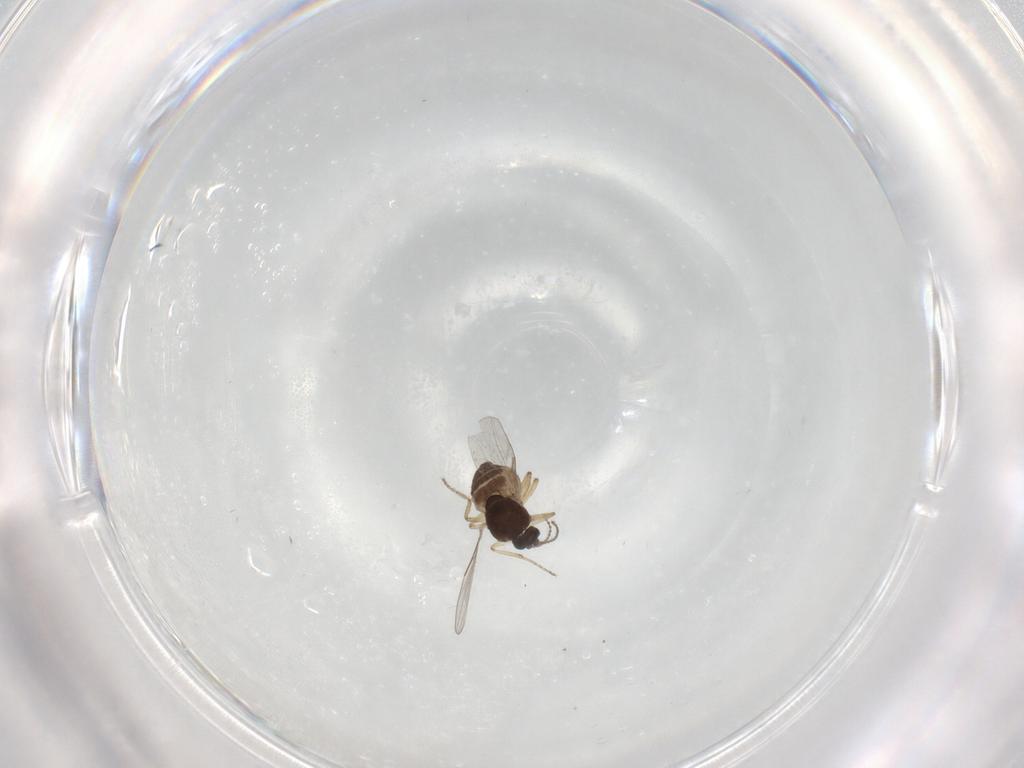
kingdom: Animalia
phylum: Arthropoda
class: Insecta
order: Diptera
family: Ceratopogonidae
